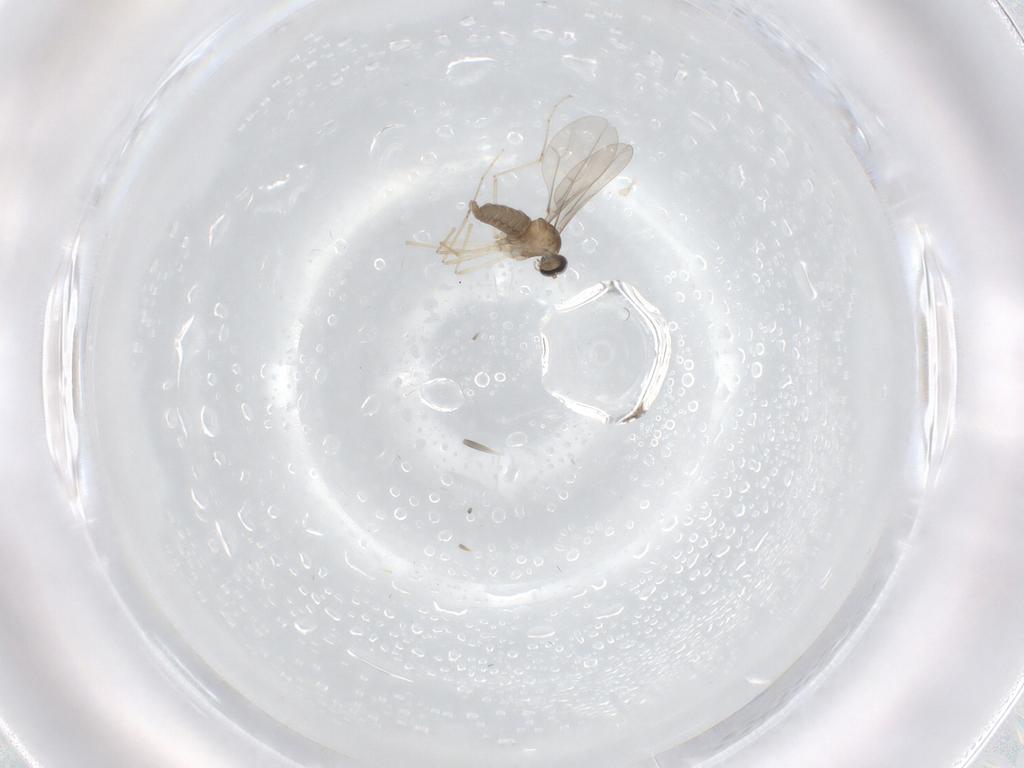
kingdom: Animalia
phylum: Arthropoda
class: Insecta
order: Diptera
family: Cecidomyiidae
